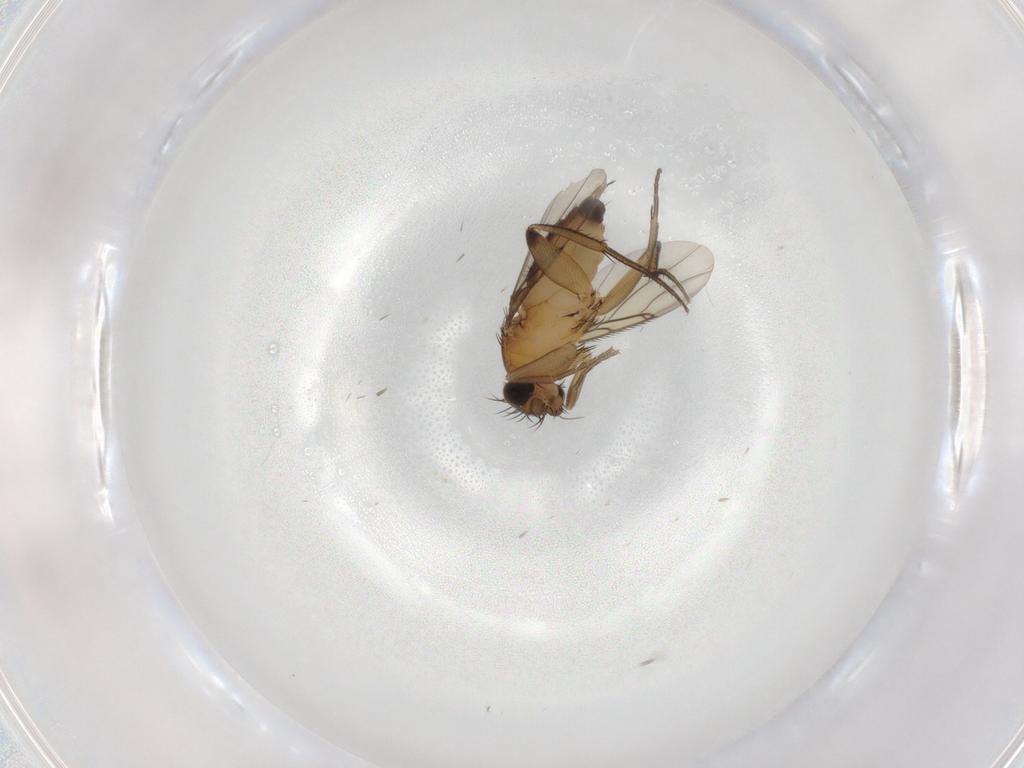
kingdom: Animalia
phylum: Arthropoda
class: Insecta
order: Diptera
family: Phoridae
